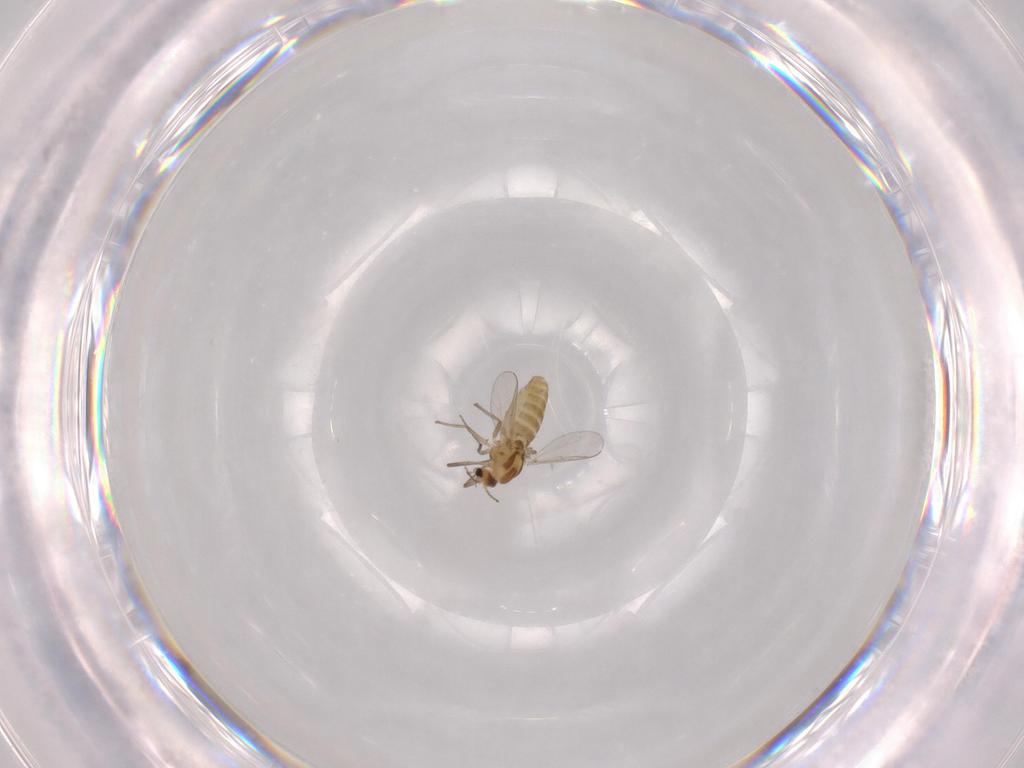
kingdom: Animalia
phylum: Arthropoda
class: Insecta
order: Diptera
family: Chironomidae
